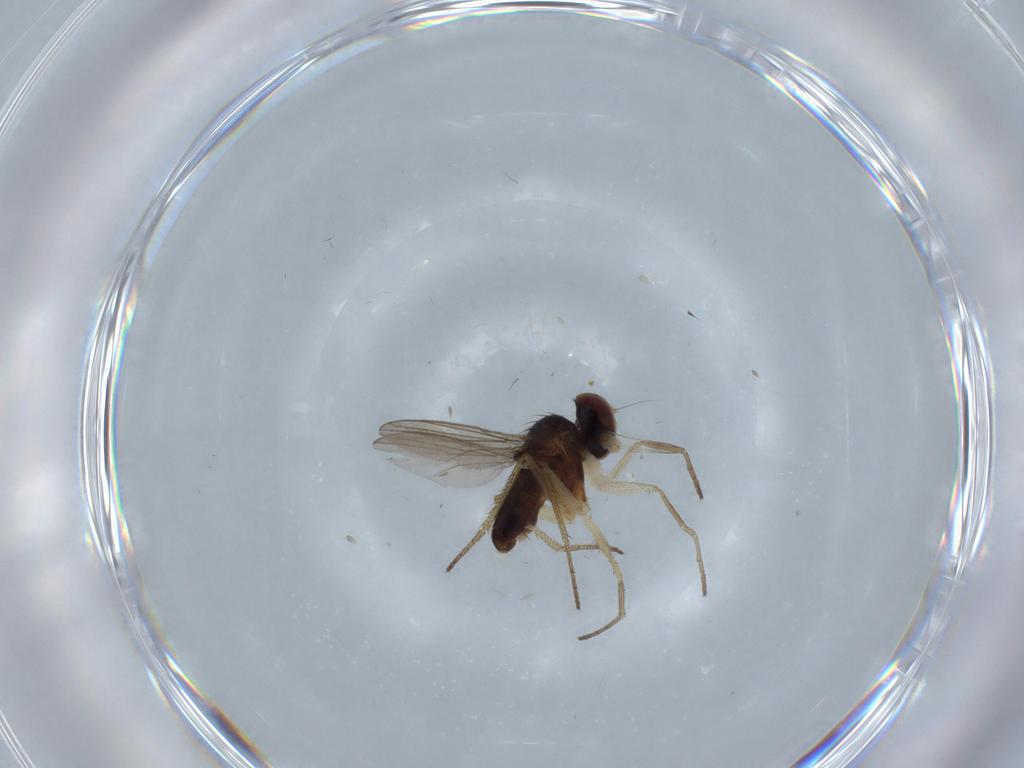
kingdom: Animalia
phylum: Arthropoda
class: Insecta
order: Diptera
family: Dolichopodidae
